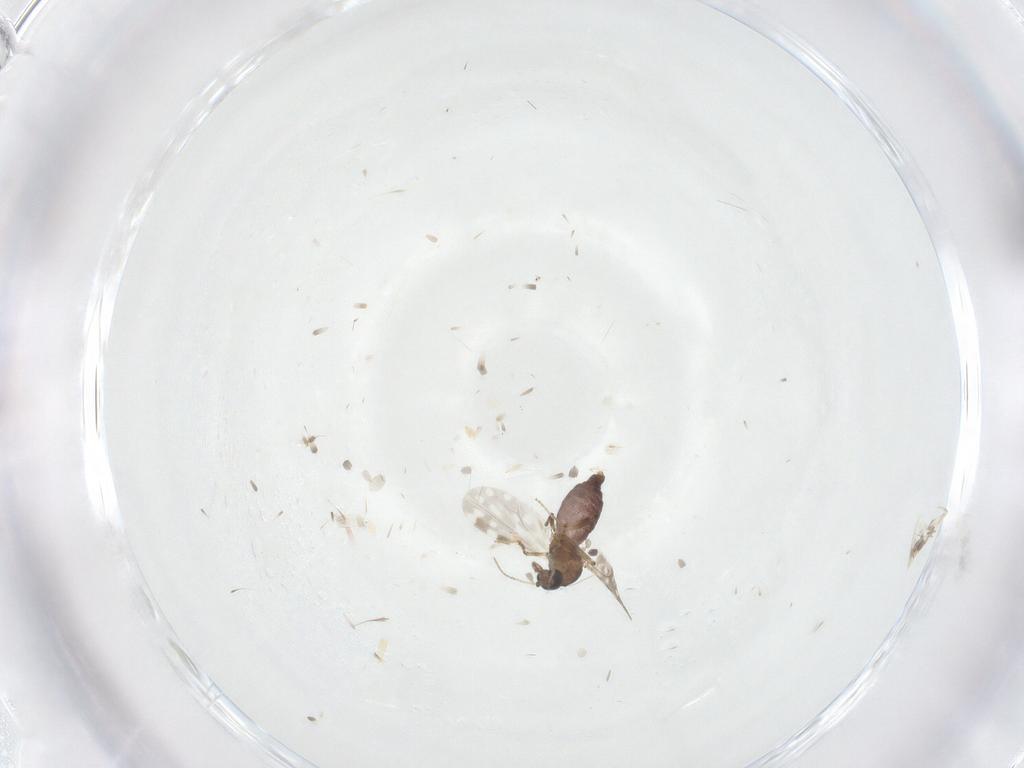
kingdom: Animalia
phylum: Arthropoda
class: Insecta
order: Diptera
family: Ceratopogonidae
